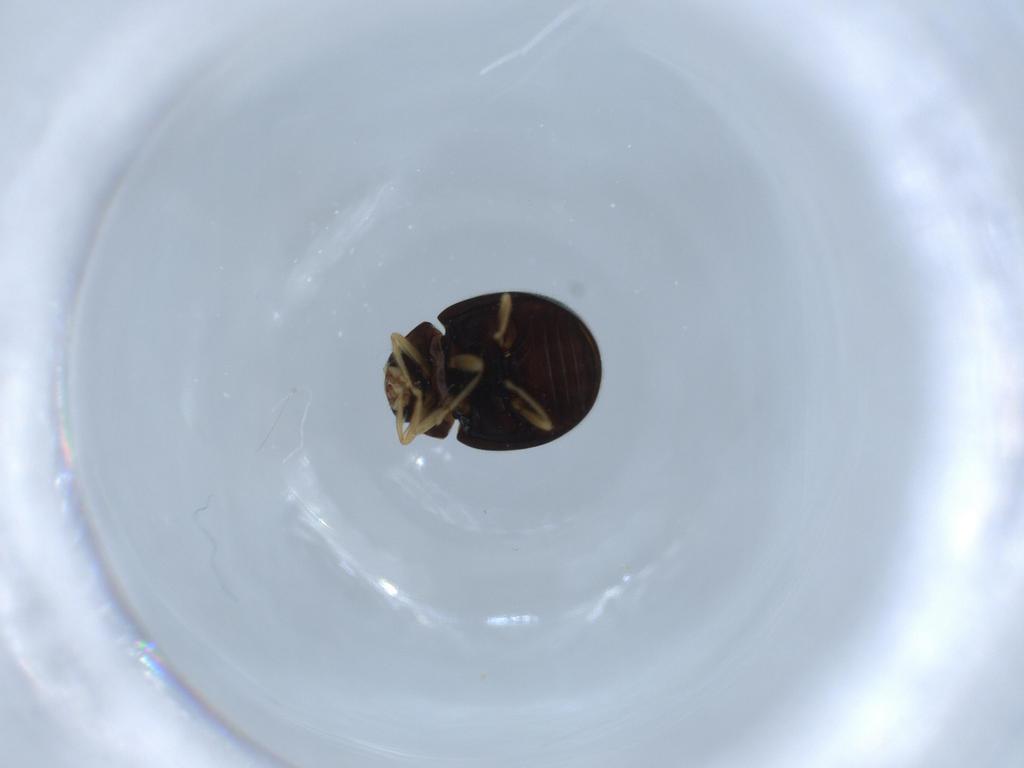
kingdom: Animalia
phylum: Arthropoda
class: Insecta
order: Coleoptera
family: Coccinellidae
